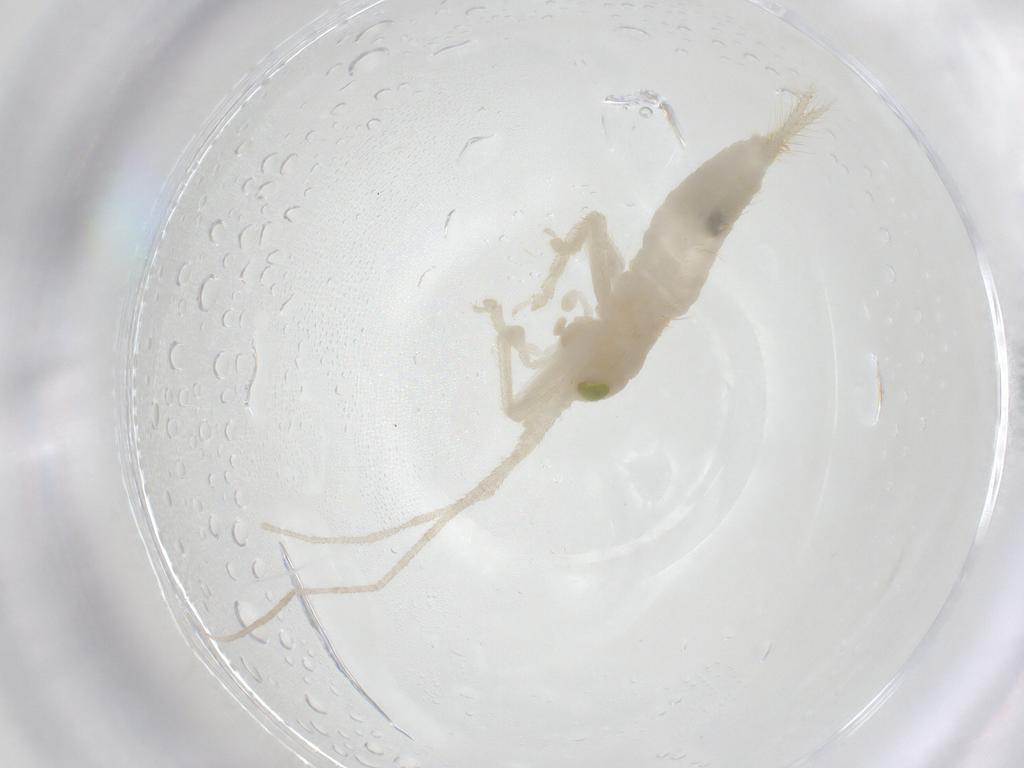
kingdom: Animalia
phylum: Arthropoda
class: Insecta
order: Orthoptera
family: Trigonidiidae
